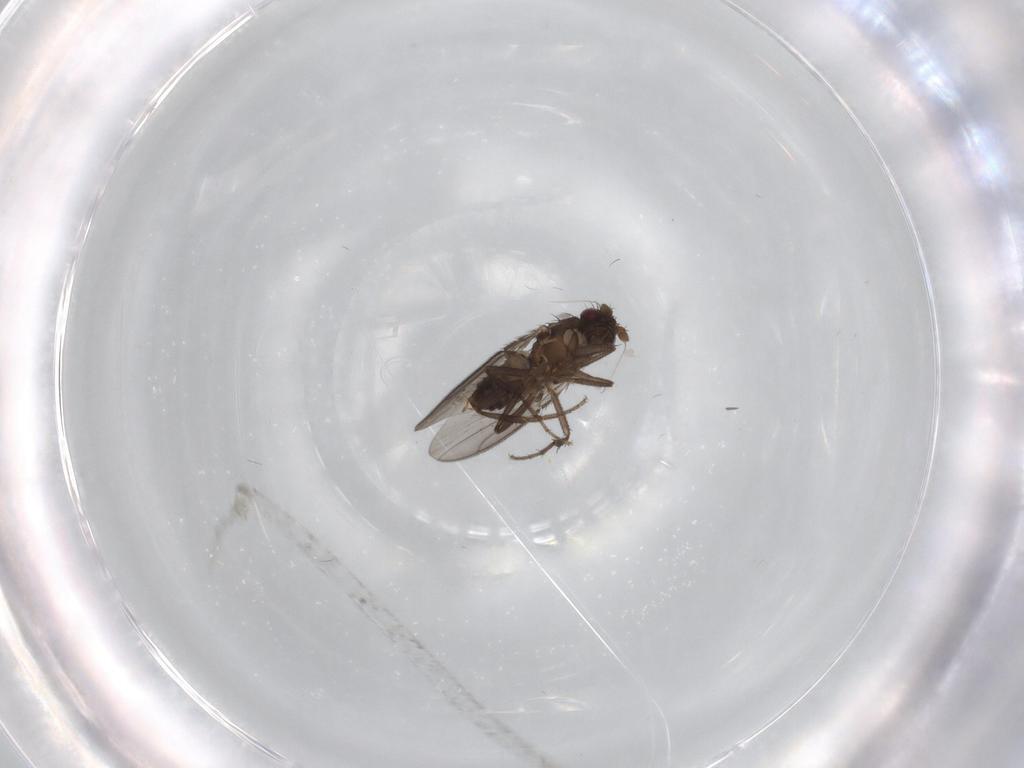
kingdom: Animalia
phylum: Arthropoda
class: Insecta
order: Diptera
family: Sphaeroceridae
